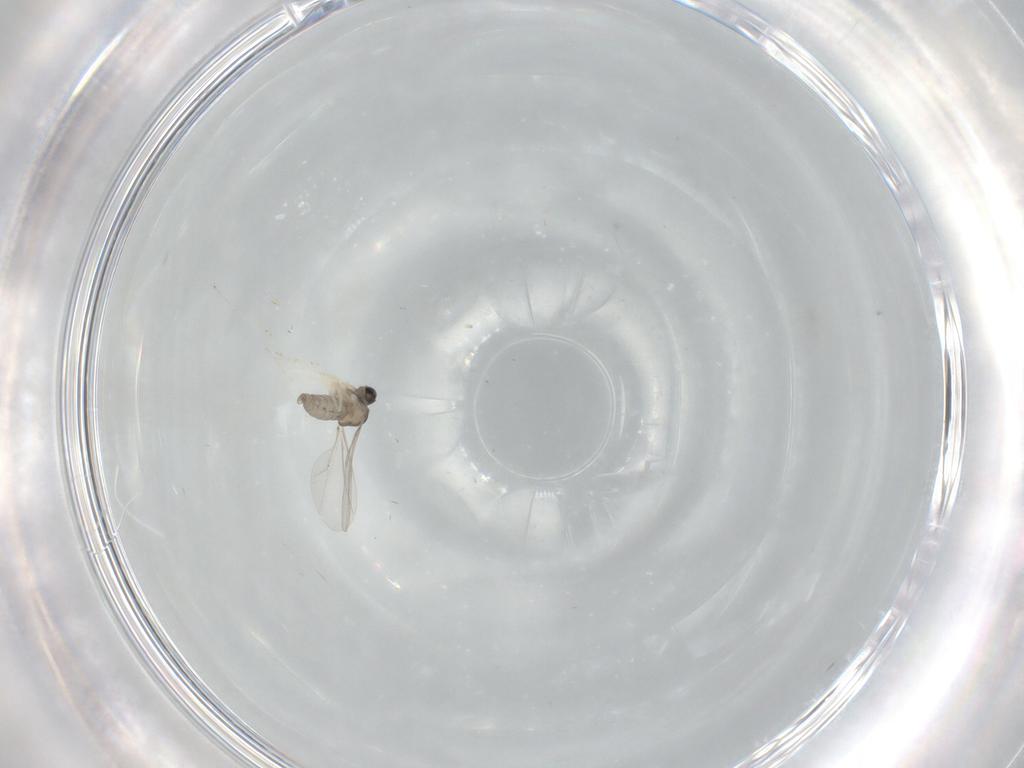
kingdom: Animalia
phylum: Arthropoda
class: Insecta
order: Diptera
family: Cecidomyiidae
